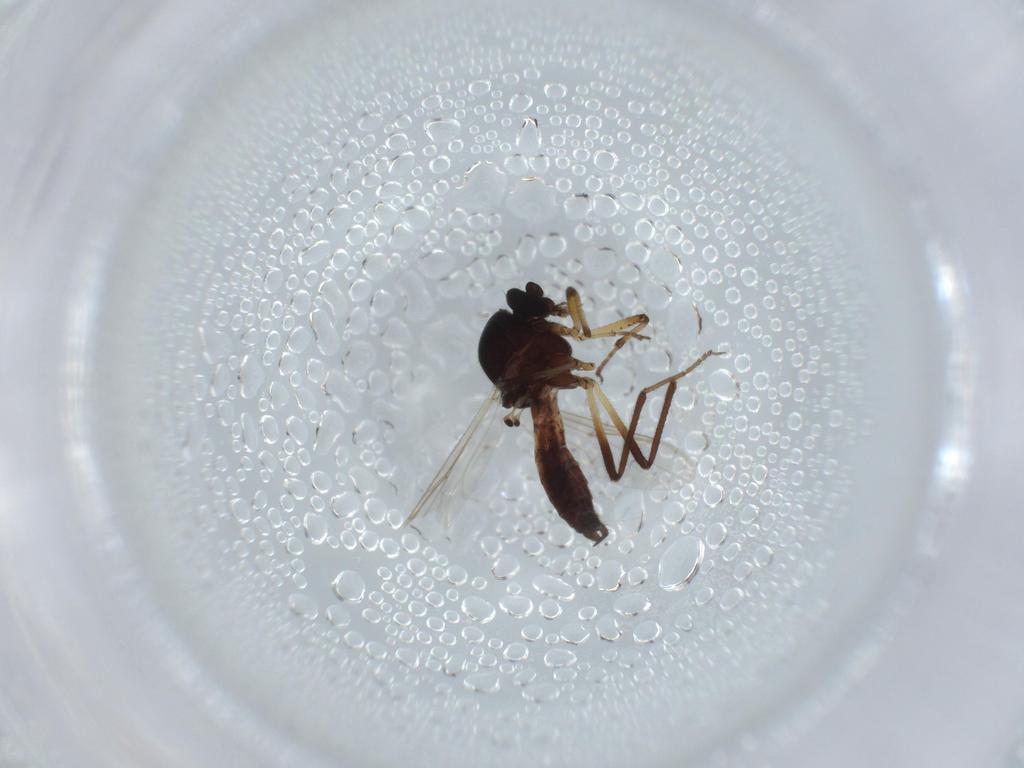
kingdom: Animalia
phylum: Arthropoda
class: Insecta
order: Diptera
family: Chironomidae
